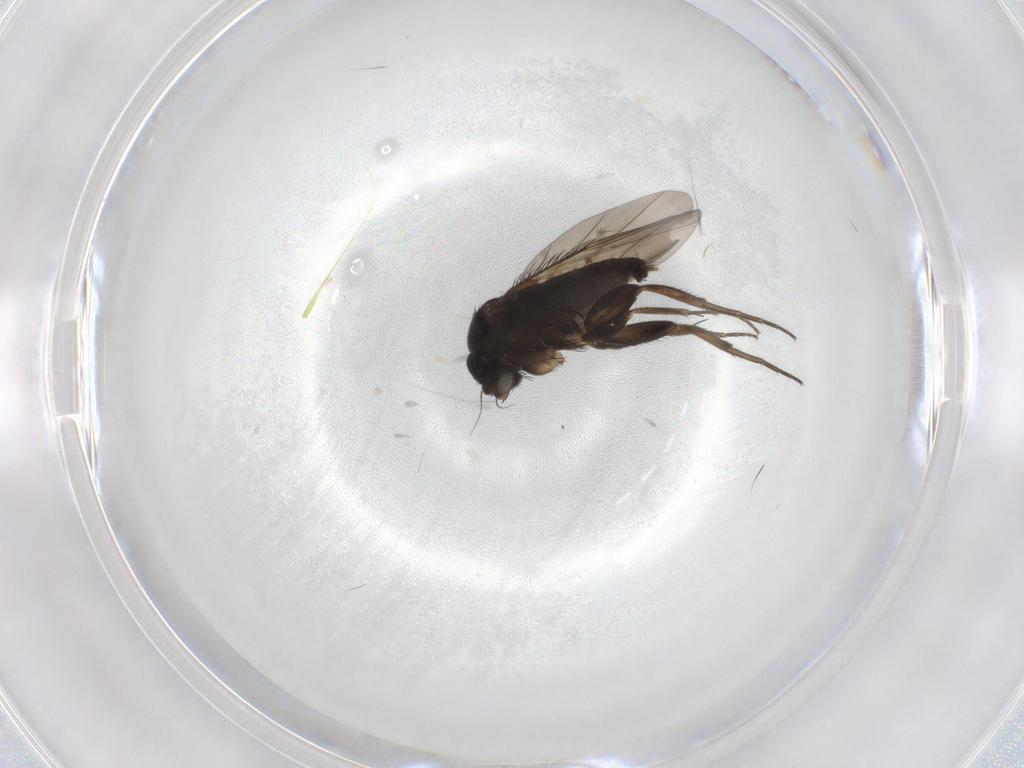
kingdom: Animalia
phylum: Arthropoda
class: Insecta
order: Diptera
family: Phoridae
